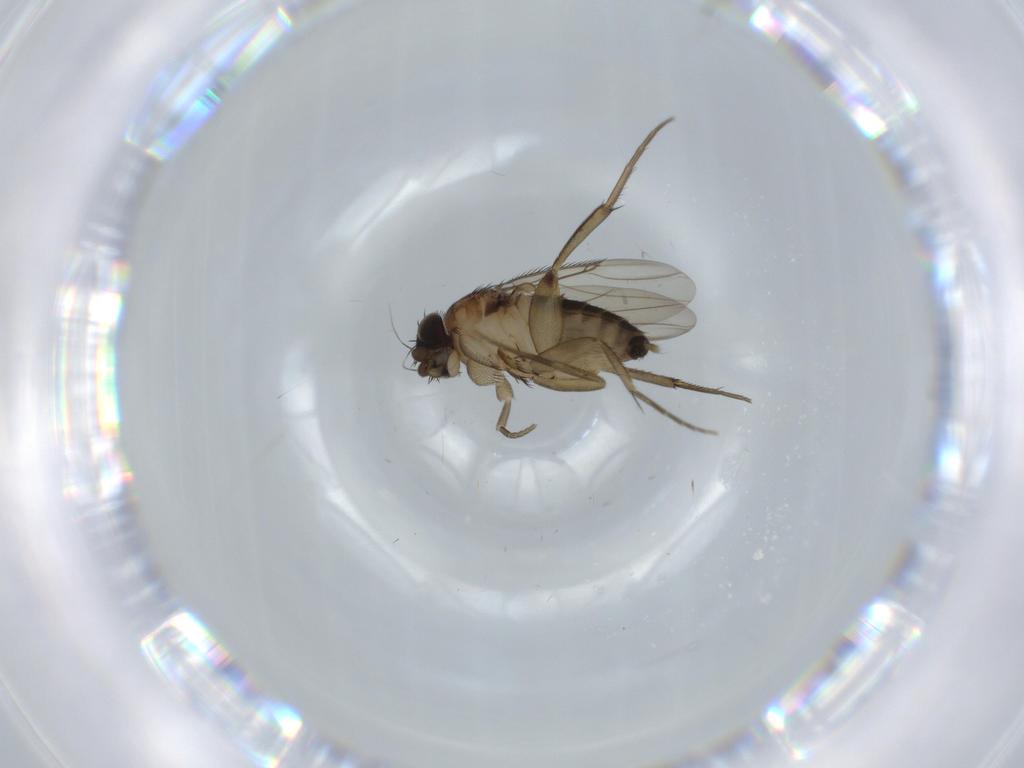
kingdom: Animalia
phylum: Arthropoda
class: Insecta
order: Diptera
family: Phoridae
